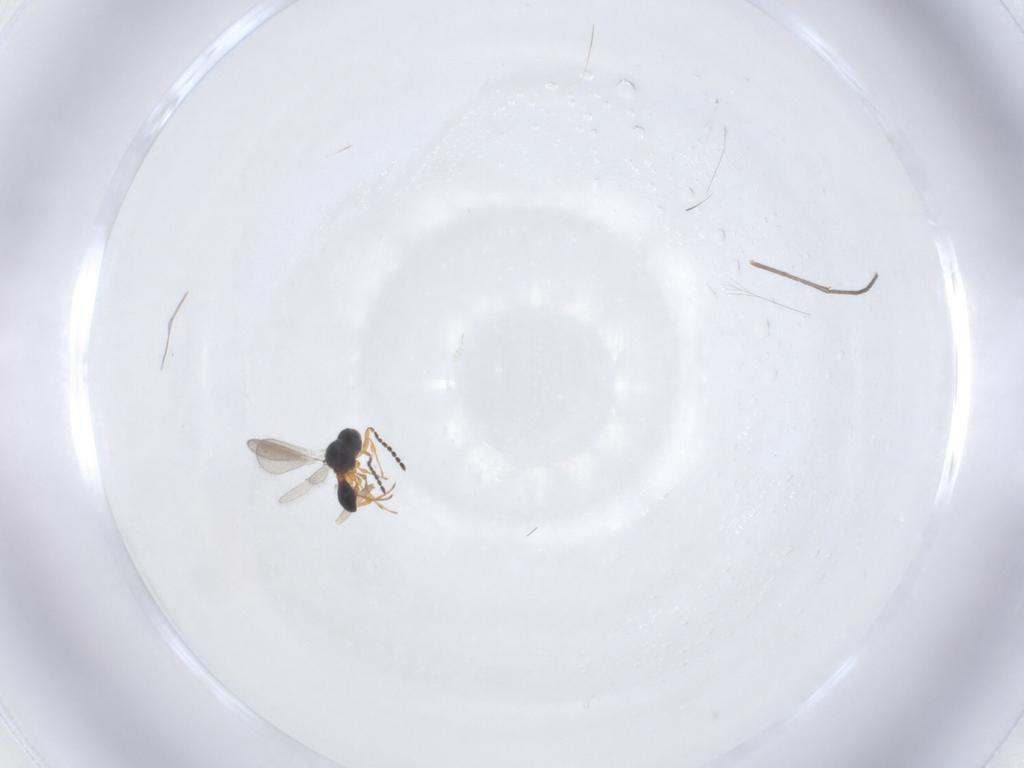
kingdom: Animalia
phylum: Arthropoda
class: Insecta
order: Hymenoptera
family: Platygastridae
